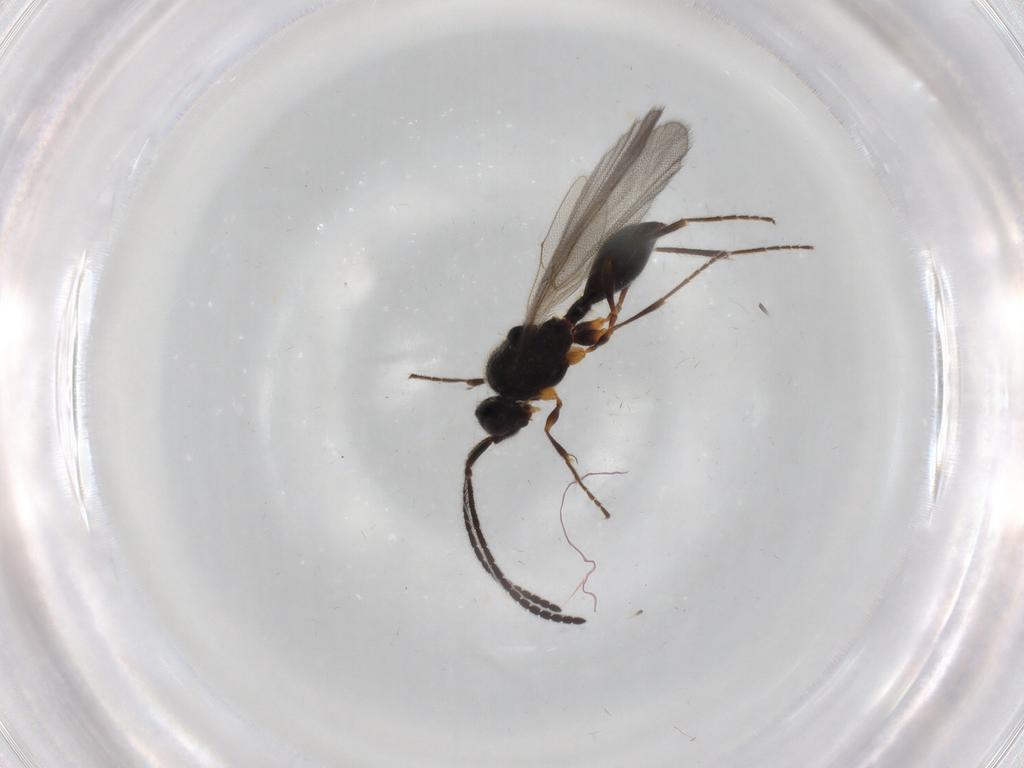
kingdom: Animalia
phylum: Arthropoda
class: Insecta
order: Hymenoptera
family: Diapriidae
